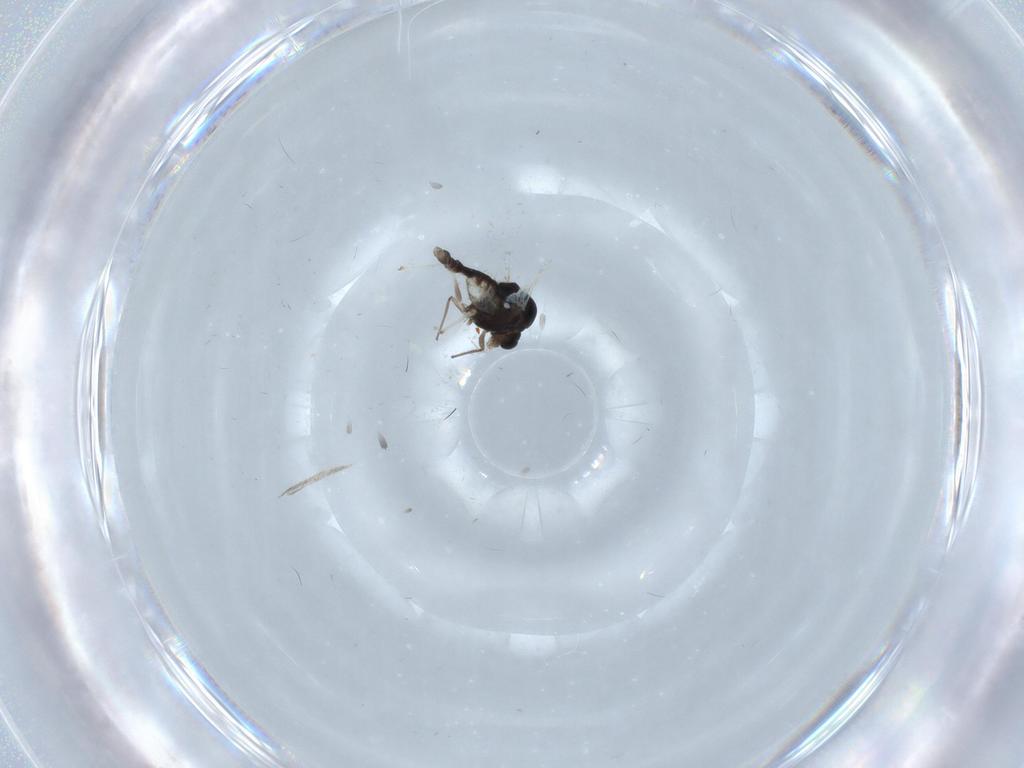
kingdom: Animalia
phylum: Arthropoda
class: Insecta
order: Diptera
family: Chironomidae
